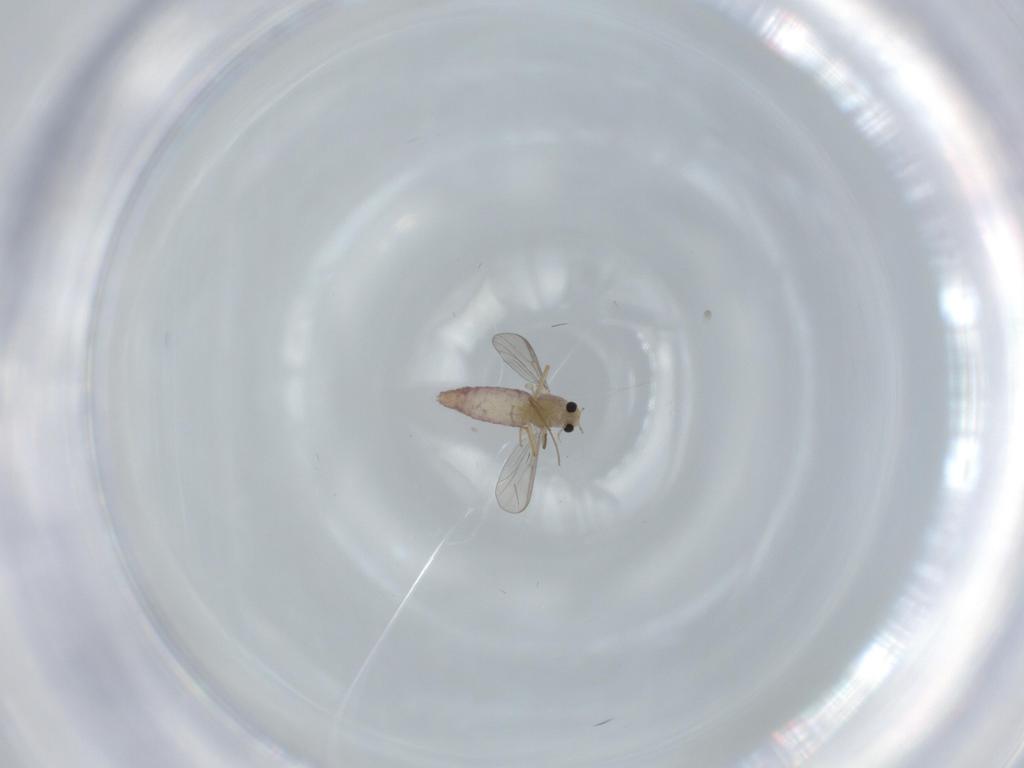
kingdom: Animalia
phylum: Arthropoda
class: Insecta
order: Diptera
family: Chironomidae
